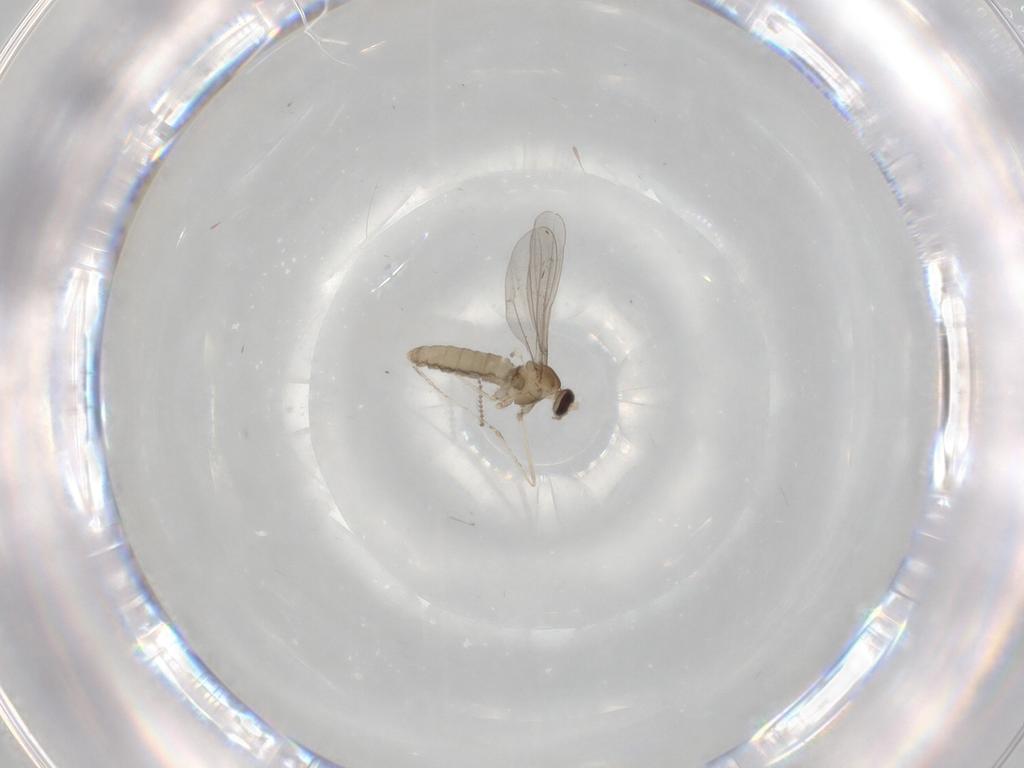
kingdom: Animalia
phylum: Arthropoda
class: Insecta
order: Diptera
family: Cecidomyiidae
